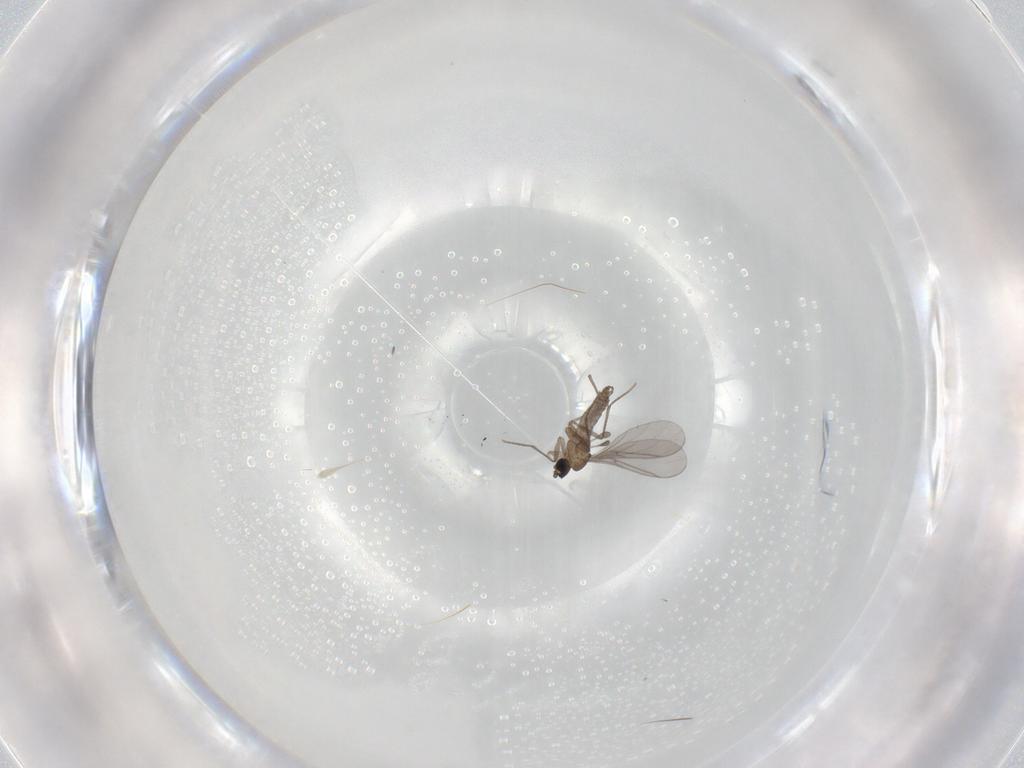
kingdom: Animalia
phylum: Arthropoda
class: Insecta
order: Diptera
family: Sciaridae
